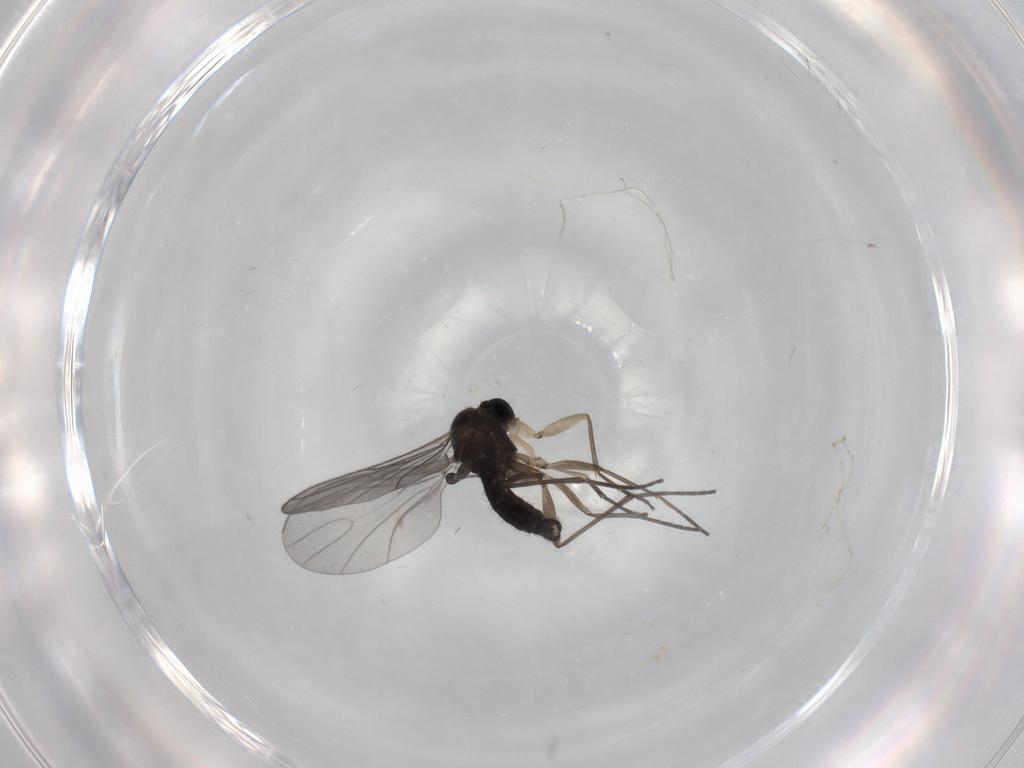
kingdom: Animalia
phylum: Arthropoda
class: Insecta
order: Diptera
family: Sciaridae
